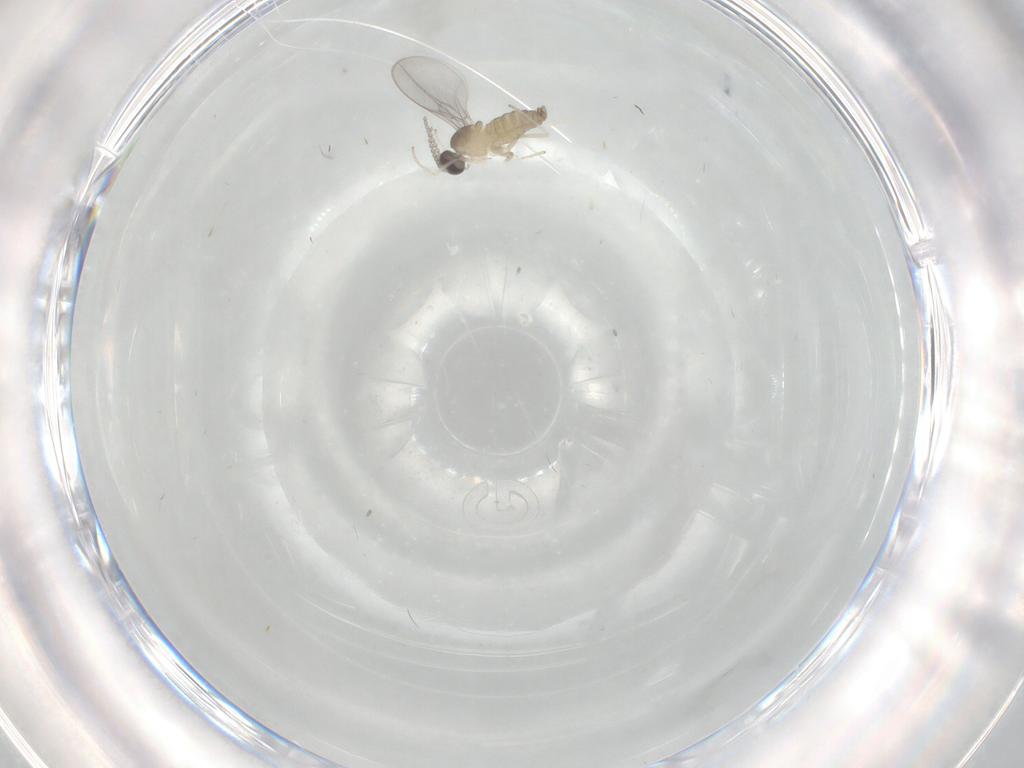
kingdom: Animalia
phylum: Arthropoda
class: Insecta
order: Diptera
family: Cecidomyiidae
